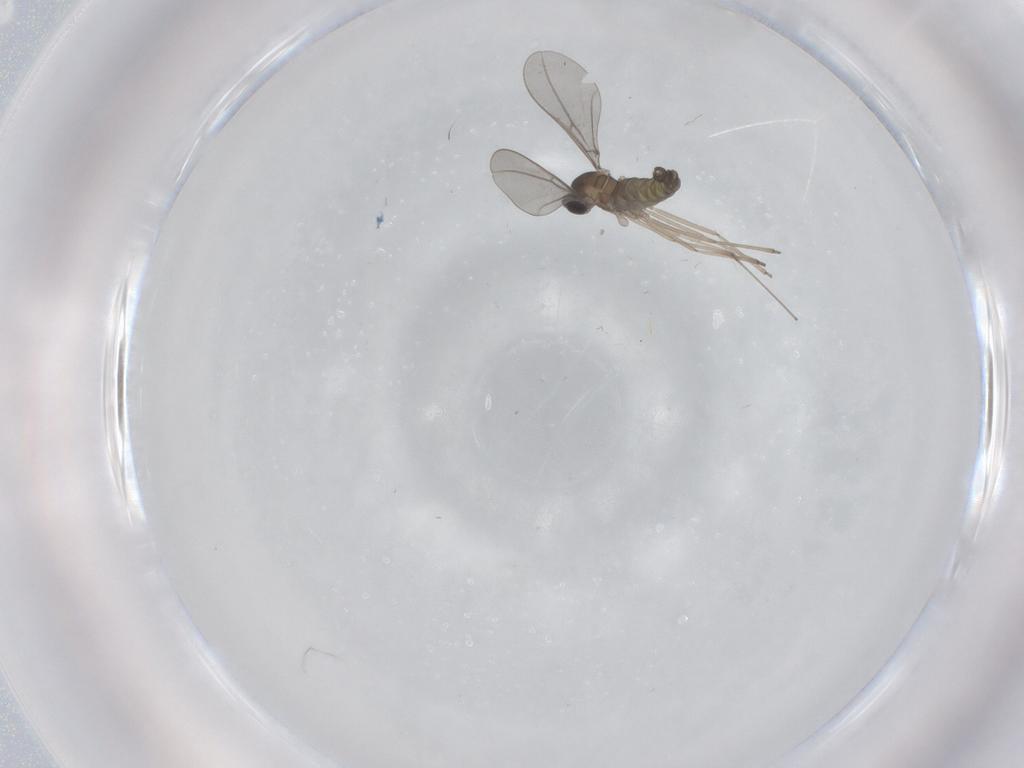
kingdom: Animalia
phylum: Arthropoda
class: Insecta
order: Diptera
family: Cecidomyiidae
